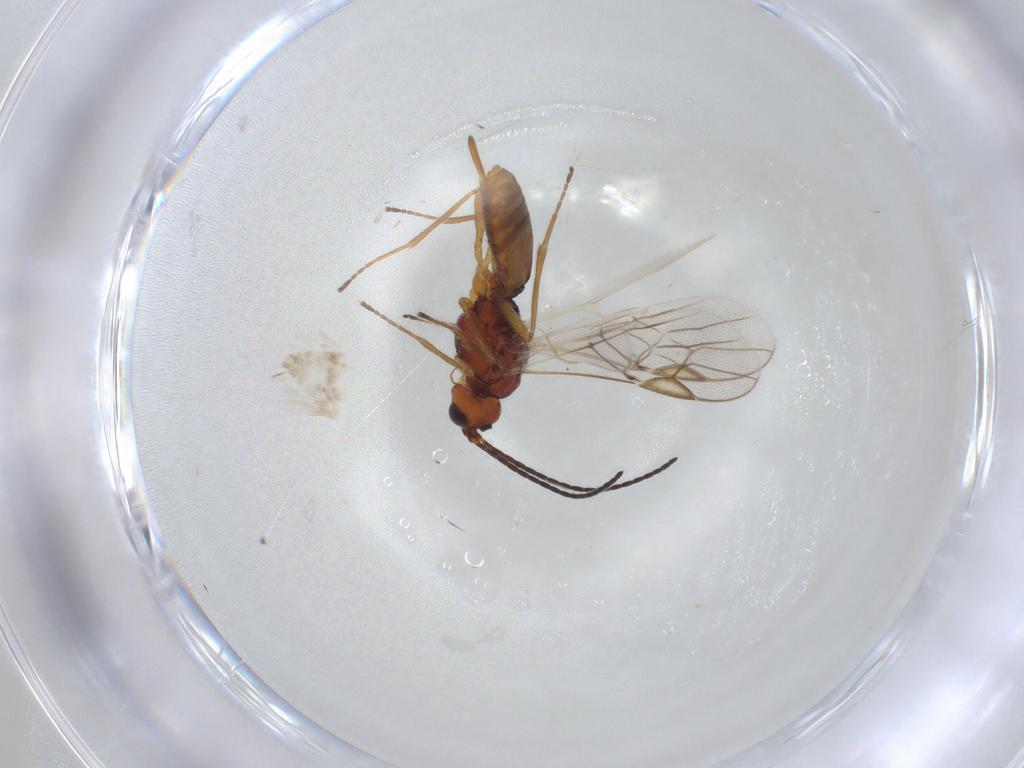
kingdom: Animalia
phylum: Arthropoda
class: Insecta
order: Hymenoptera
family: Braconidae
